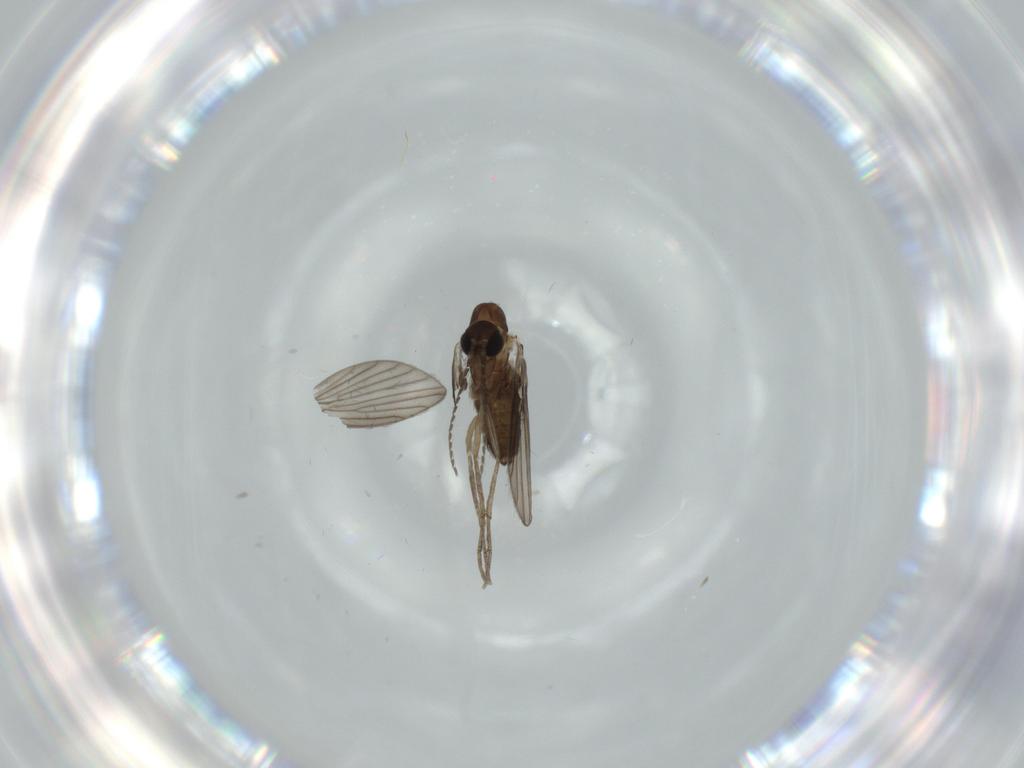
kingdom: Animalia
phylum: Arthropoda
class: Insecta
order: Diptera
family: Psychodidae
